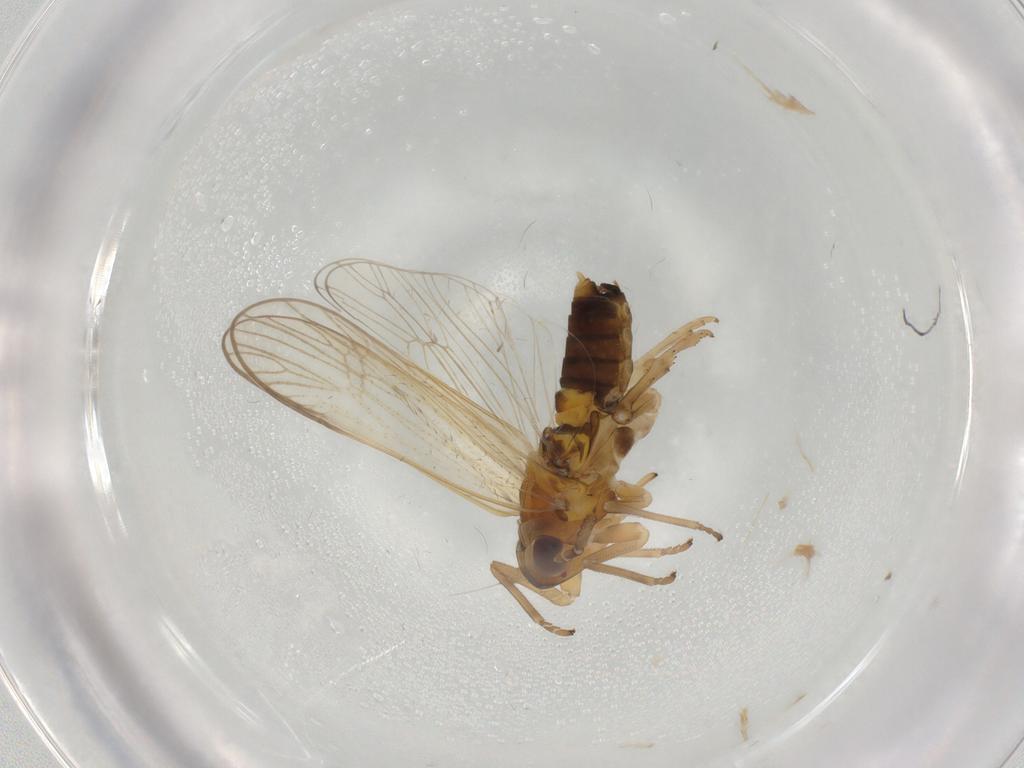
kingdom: Animalia
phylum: Arthropoda
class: Insecta
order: Hemiptera
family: Delphacidae
